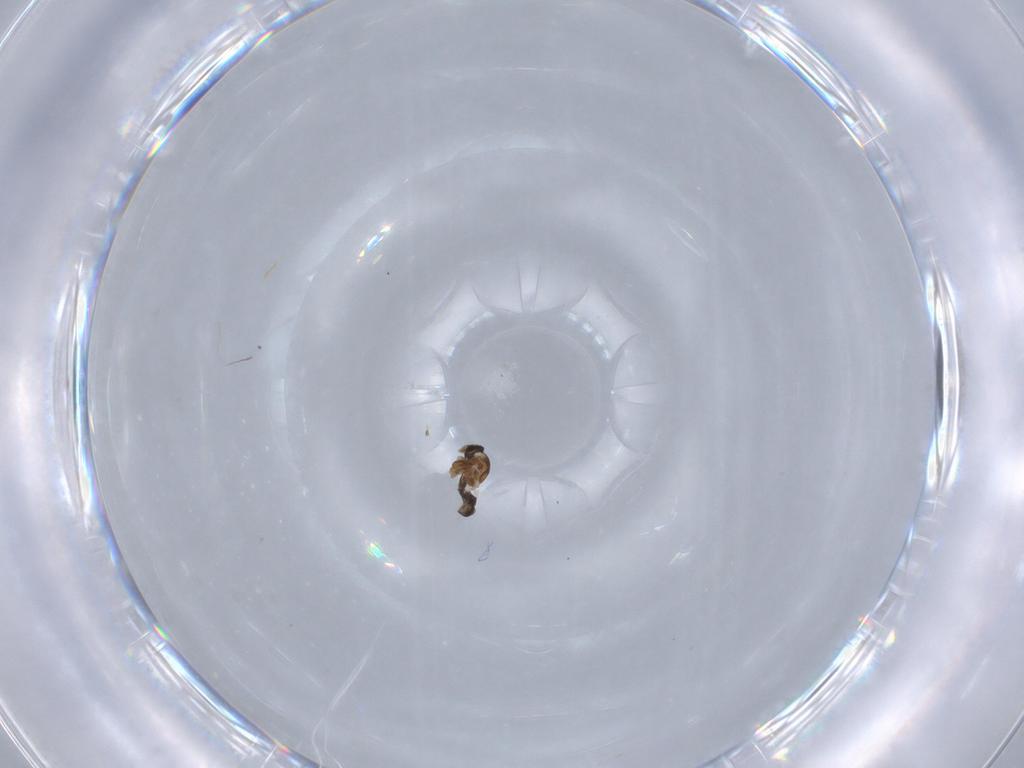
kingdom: Animalia
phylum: Arthropoda
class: Insecta
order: Diptera
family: Ceratopogonidae
